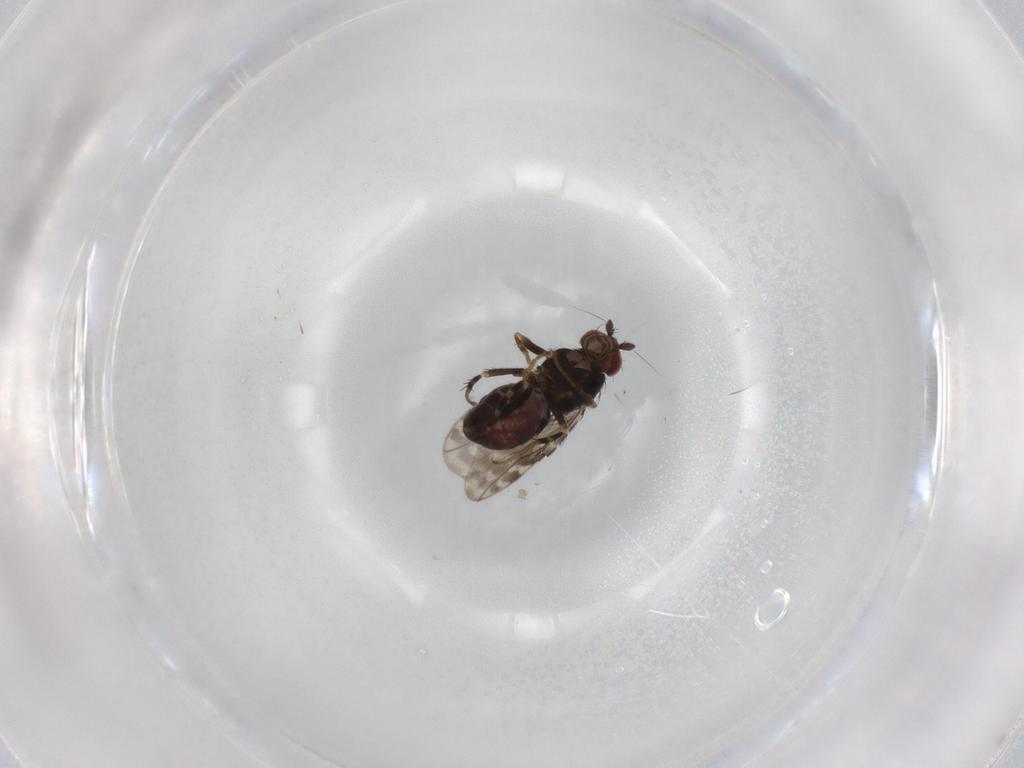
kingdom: Animalia
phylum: Arthropoda
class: Insecta
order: Diptera
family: Sphaeroceridae
